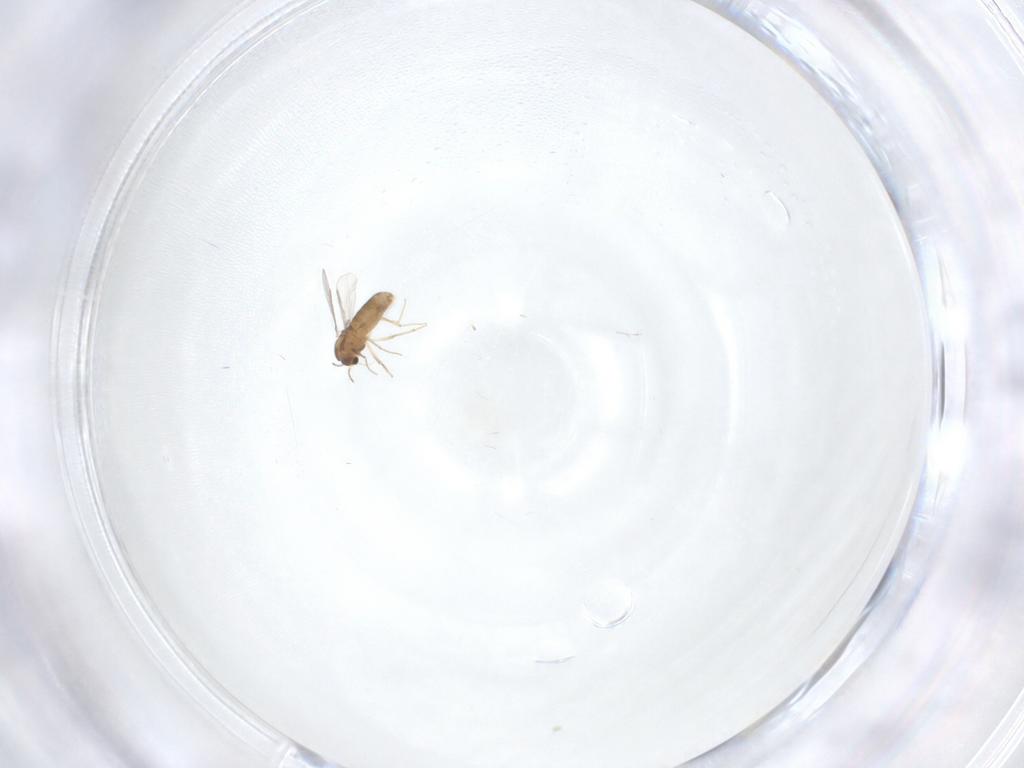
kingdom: Animalia
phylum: Arthropoda
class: Insecta
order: Diptera
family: Chironomidae
